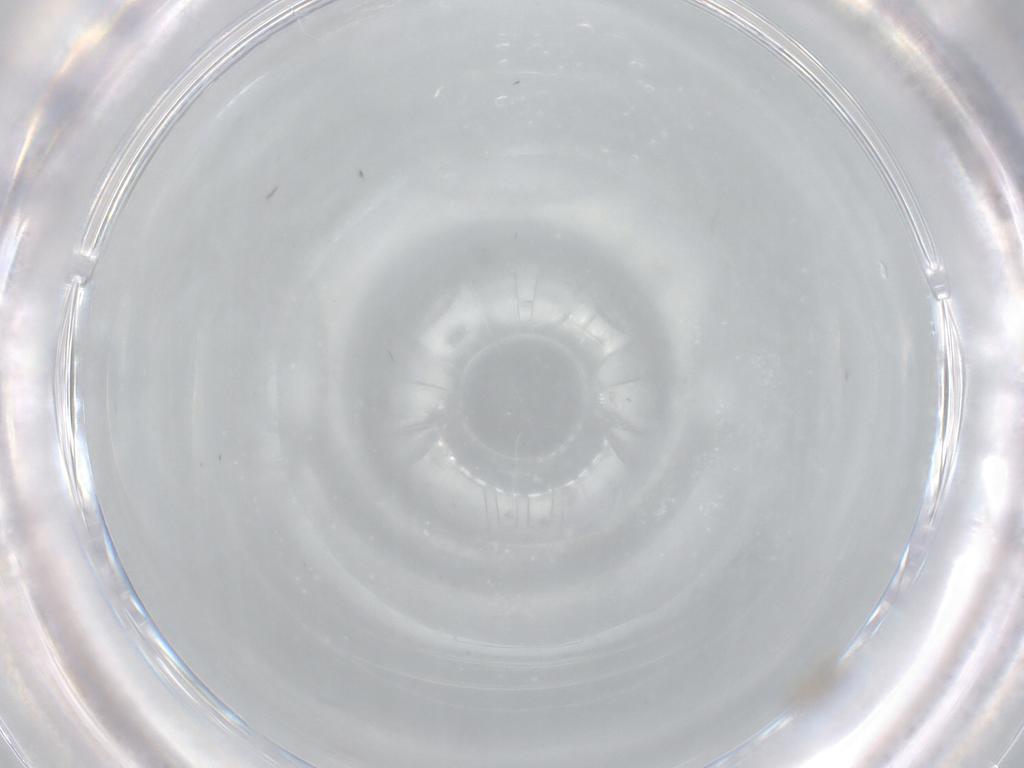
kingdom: Animalia
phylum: Arthropoda
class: Insecta
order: Diptera
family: Cecidomyiidae
